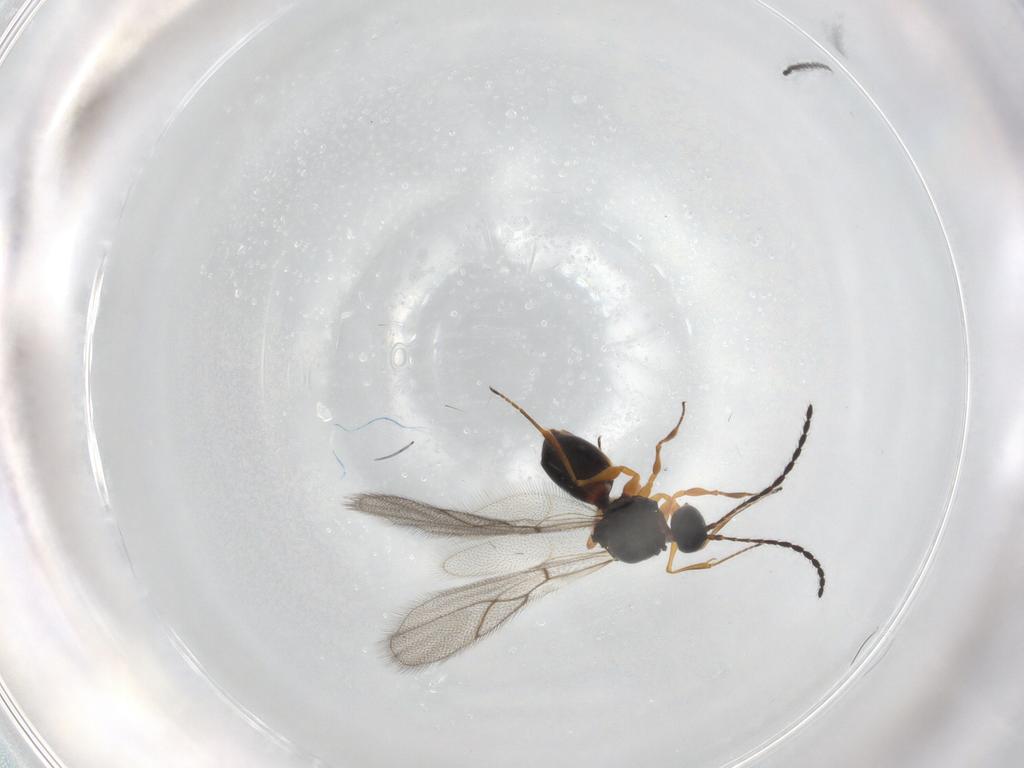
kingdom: Animalia
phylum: Arthropoda
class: Insecta
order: Hymenoptera
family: Figitidae
